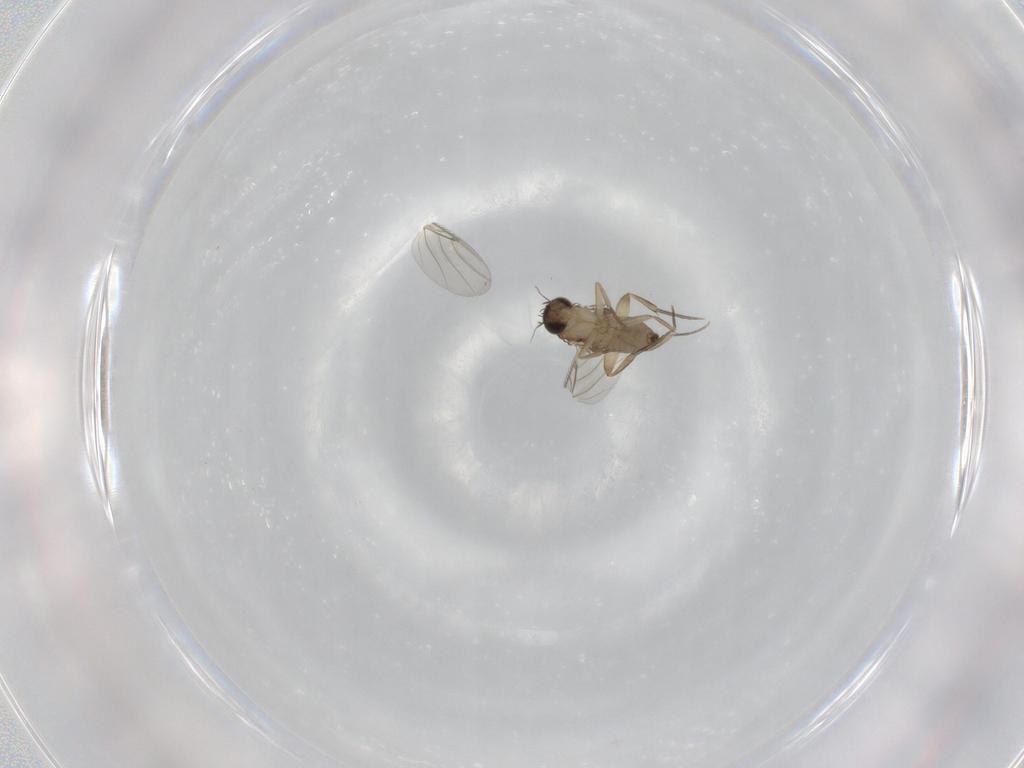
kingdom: Animalia
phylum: Arthropoda
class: Insecta
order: Diptera
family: Phoridae
